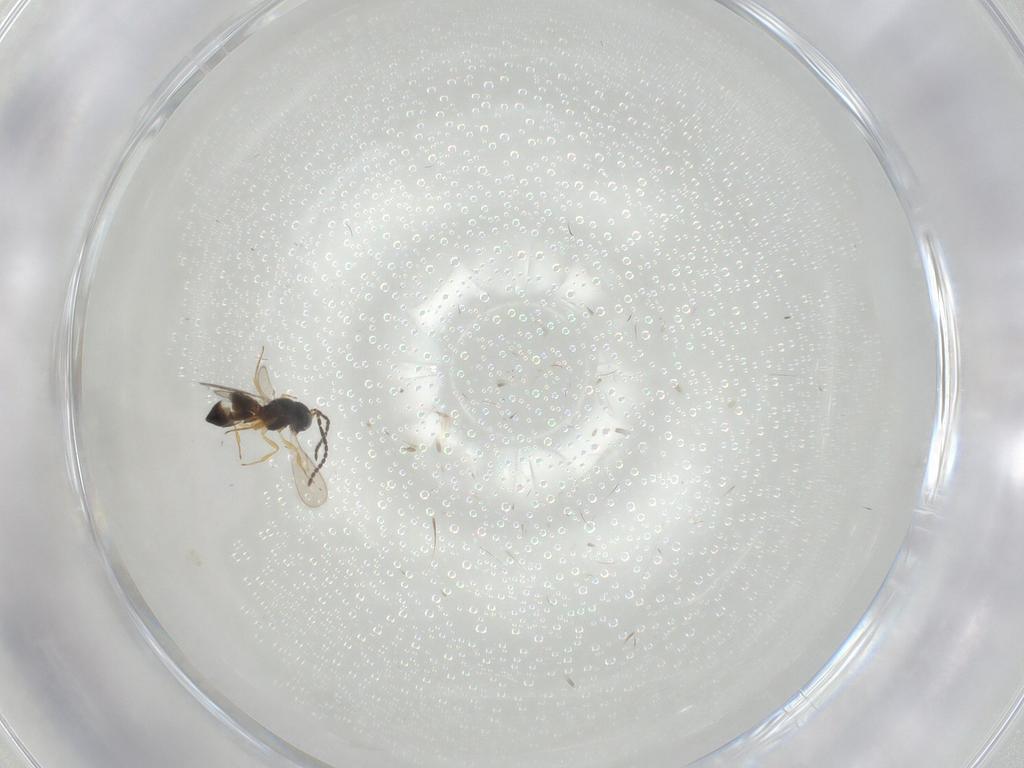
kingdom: Animalia
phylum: Arthropoda
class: Insecta
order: Hymenoptera
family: Scelionidae
